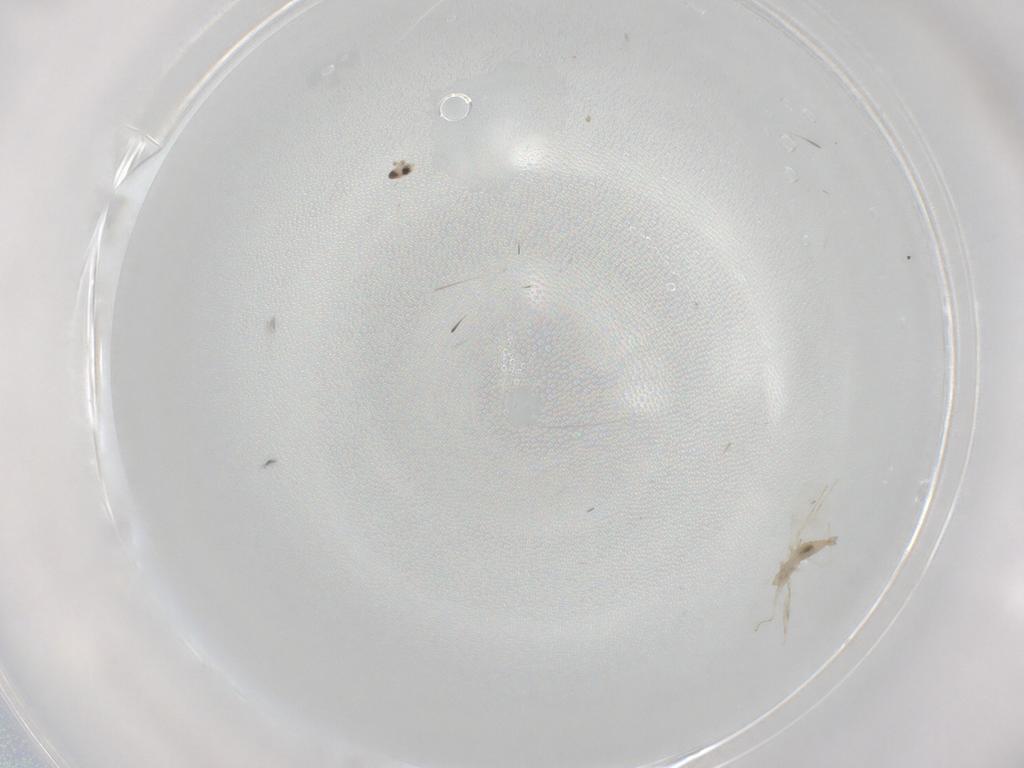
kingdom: Animalia
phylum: Arthropoda
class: Insecta
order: Diptera
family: Cecidomyiidae
